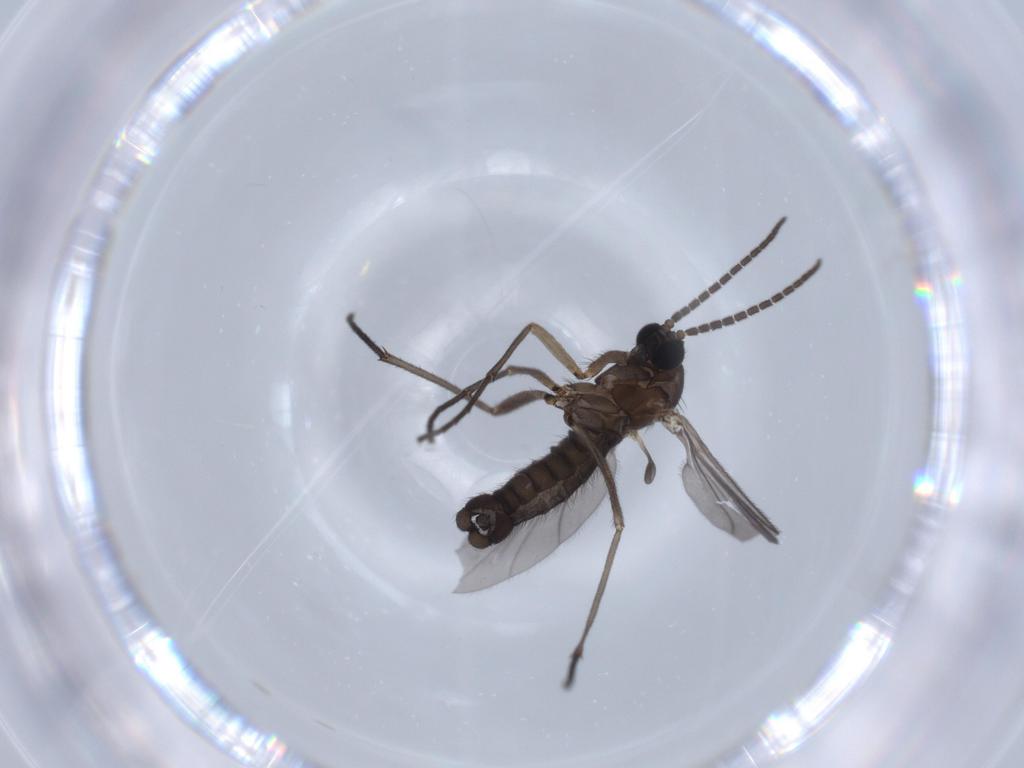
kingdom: Animalia
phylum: Arthropoda
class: Insecta
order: Diptera
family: Sciaridae
